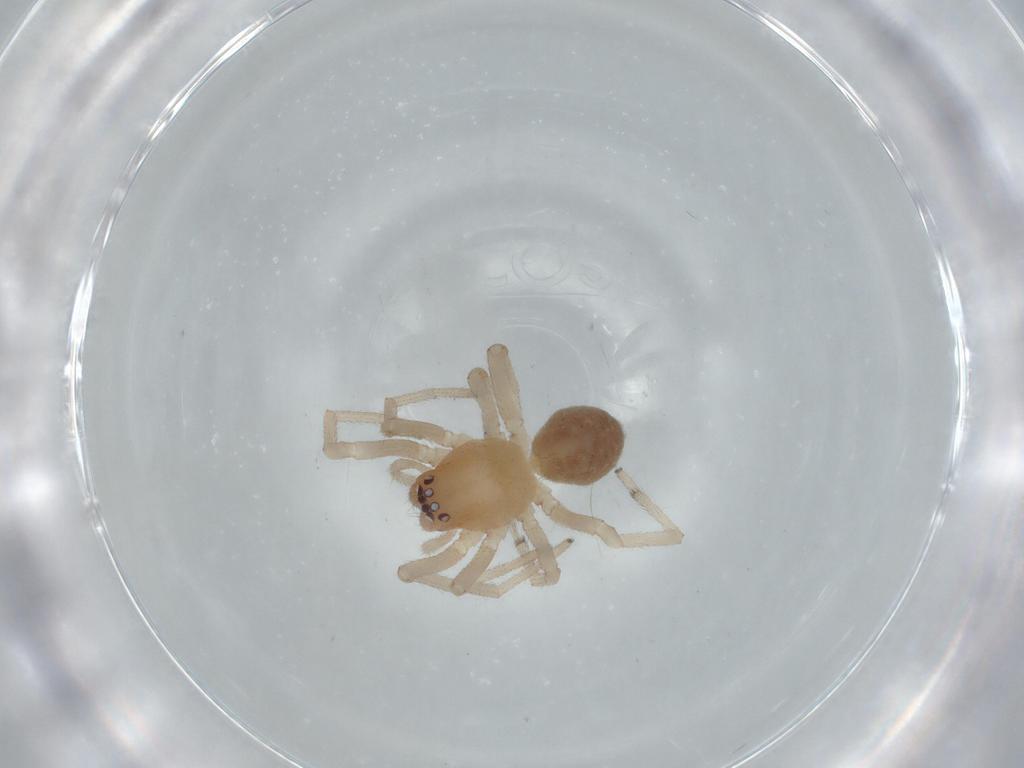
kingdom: Animalia
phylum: Arthropoda
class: Arachnida
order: Araneae
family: Trachelidae
